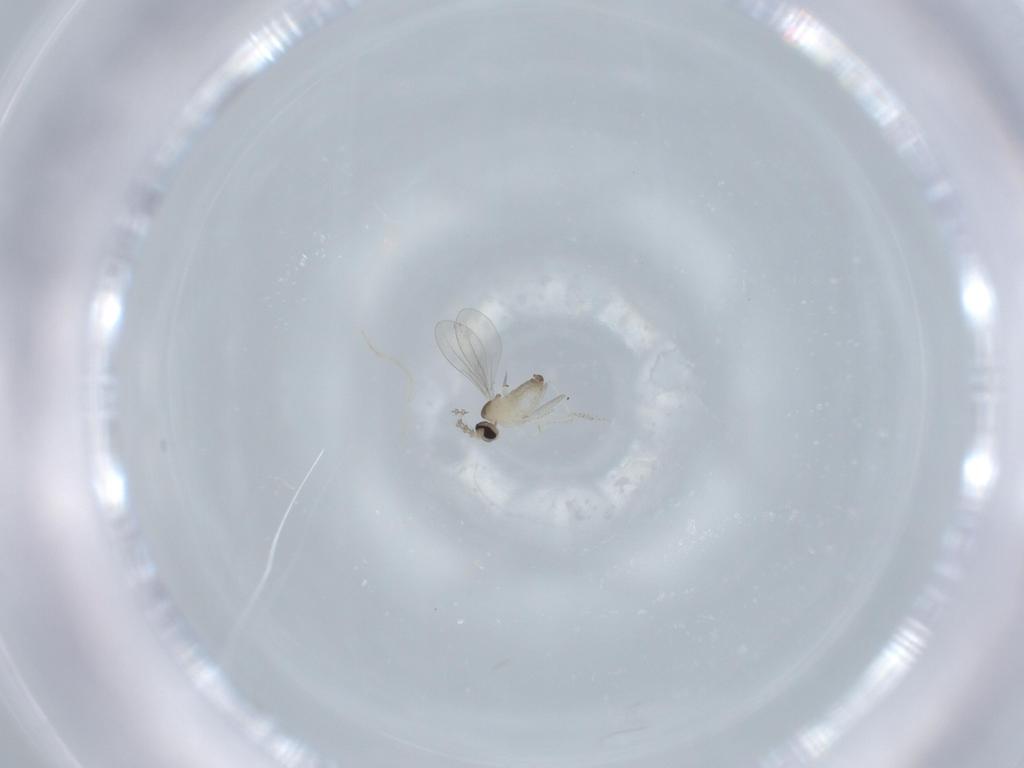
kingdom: Animalia
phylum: Arthropoda
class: Insecta
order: Diptera
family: Cecidomyiidae
